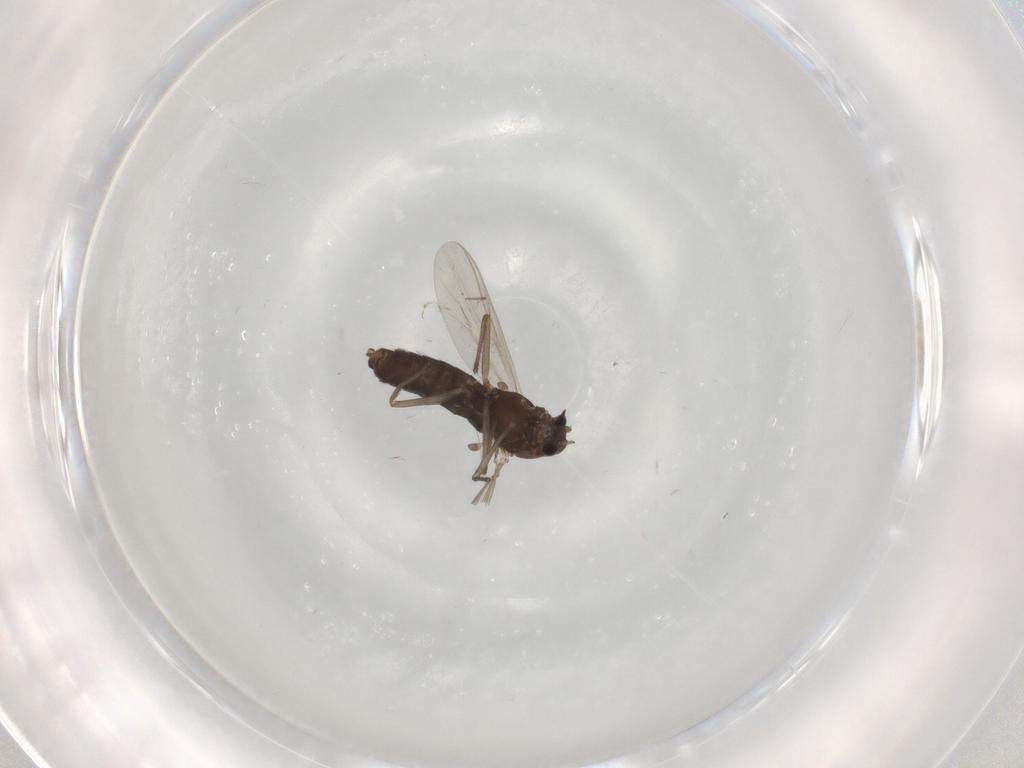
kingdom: Animalia
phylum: Arthropoda
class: Insecta
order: Diptera
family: Chironomidae
